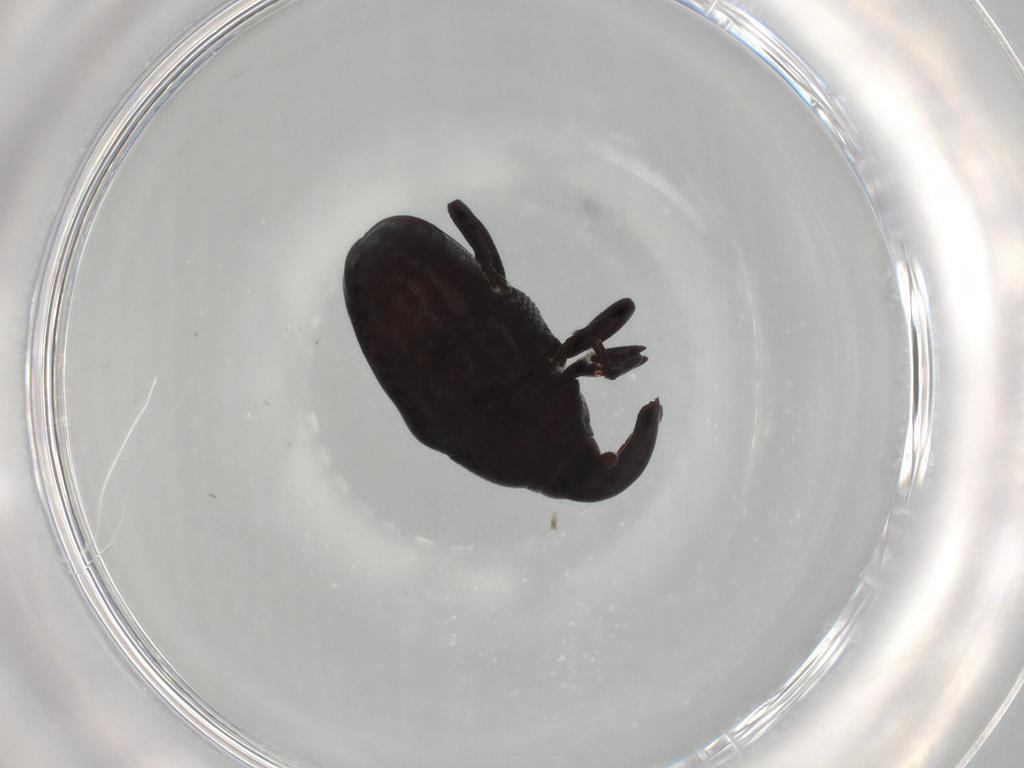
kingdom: Animalia
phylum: Arthropoda
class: Insecta
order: Coleoptera
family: Curculionidae
